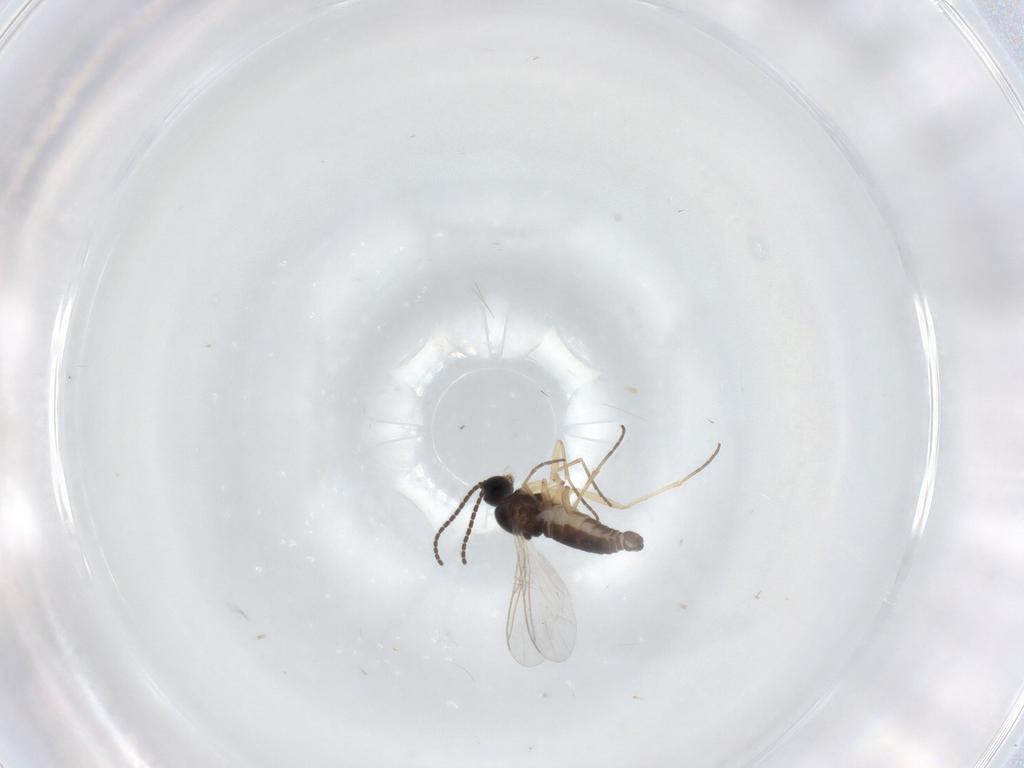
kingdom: Animalia
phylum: Arthropoda
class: Insecta
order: Diptera
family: Sciaridae
